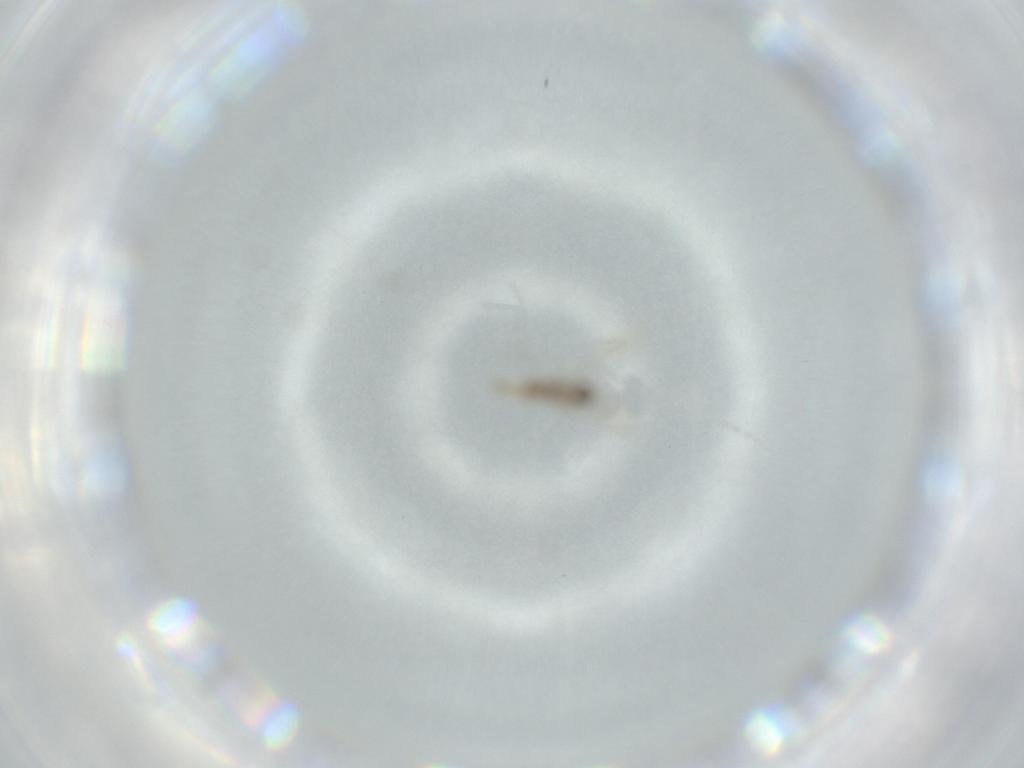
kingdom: Animalia
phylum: Arthropoda
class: Insecta
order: Diptera
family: Cecidomyiidae
